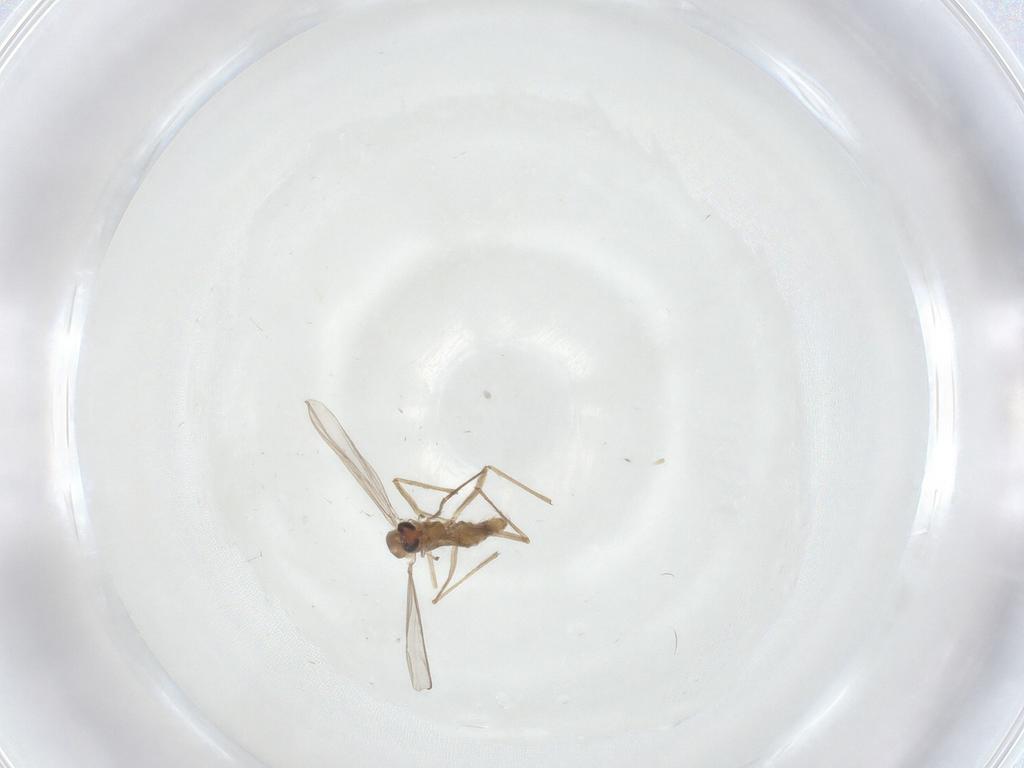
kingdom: Animalia
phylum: Arthropoda
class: Insecta
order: Diptera
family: Chironomidae
